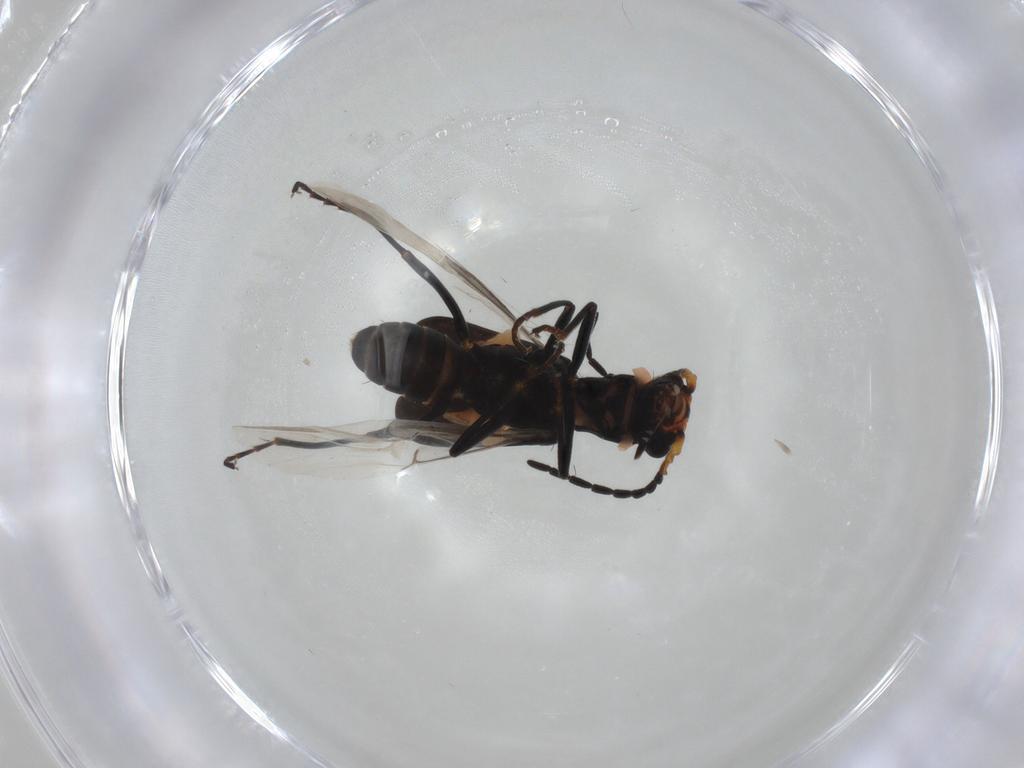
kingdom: Animalia
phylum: Arthropoda
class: Insecta
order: Coleoptera
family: Melyridae
